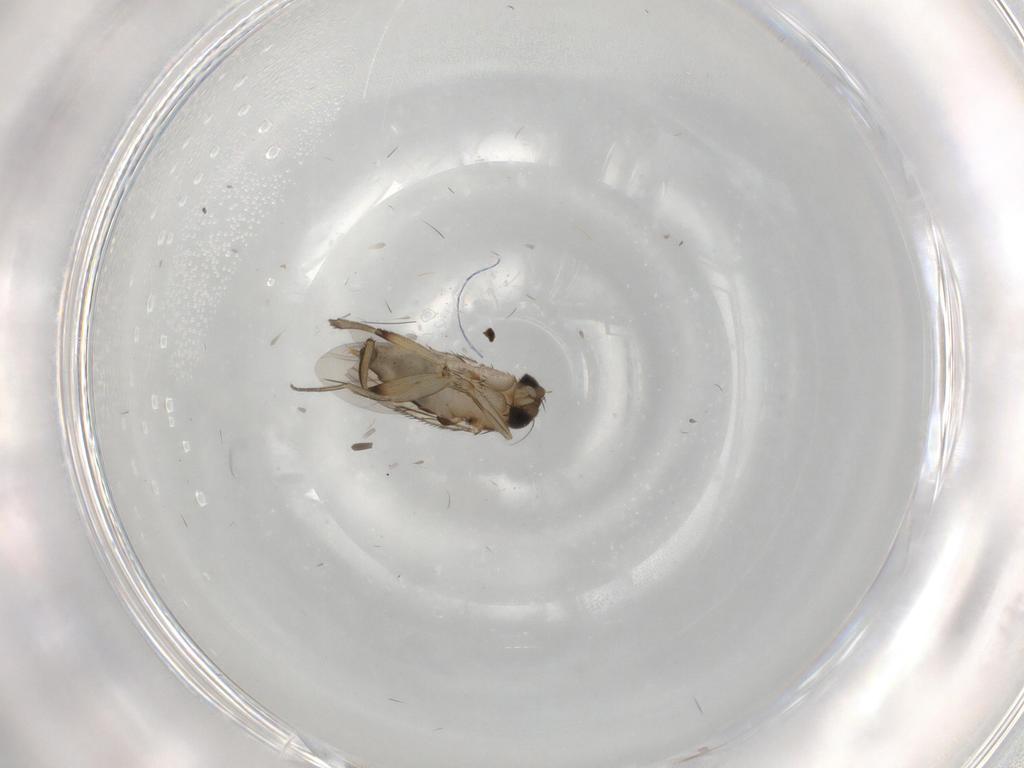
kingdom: Animalia
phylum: Arthropoda
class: Insecta
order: Diptera
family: Phoridae
